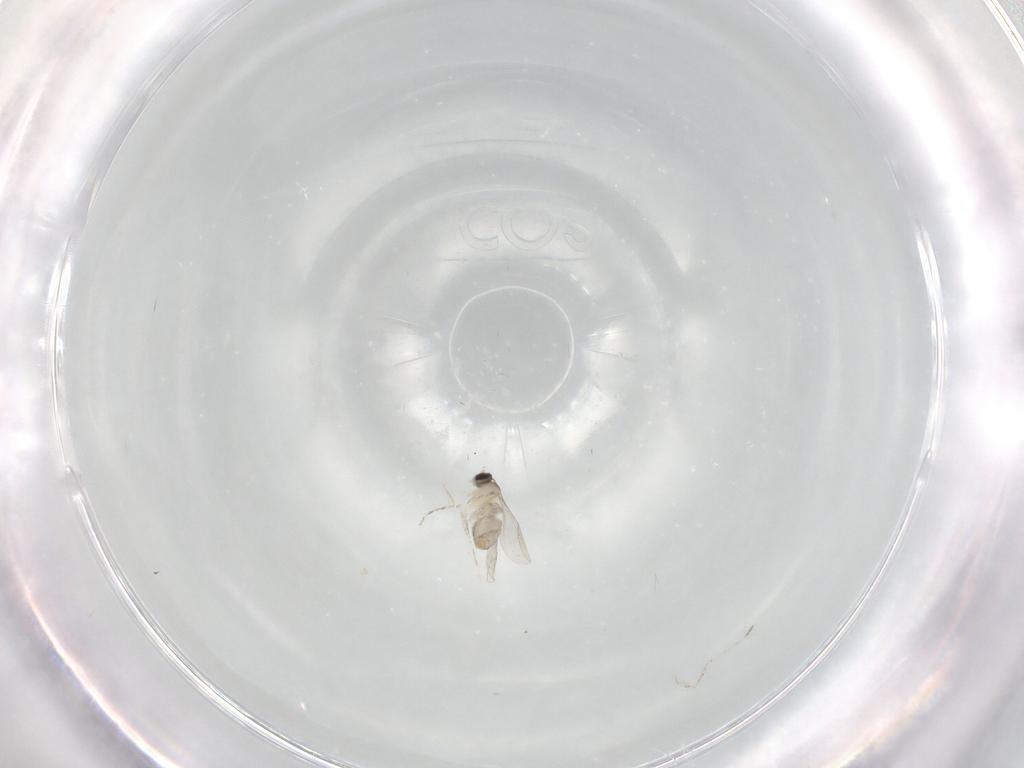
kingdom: Animalia
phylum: Arthropoda
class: Insecta
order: Diptera
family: Cecidomyiidae
